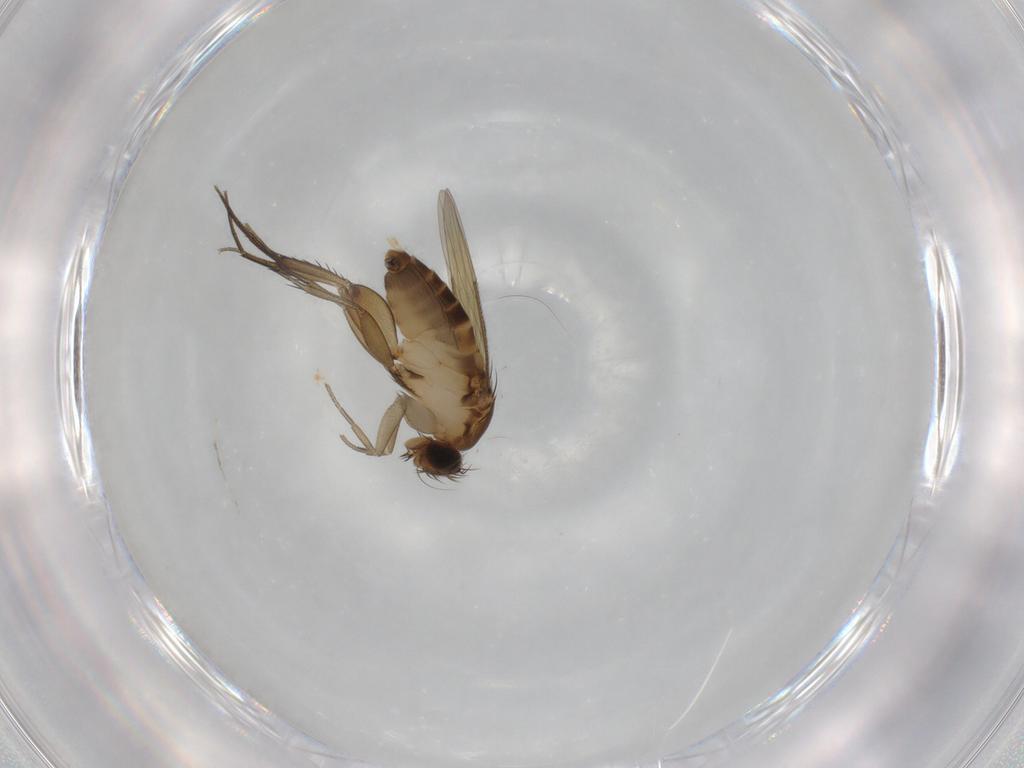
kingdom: Animalia
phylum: Arthropoda
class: Insecta
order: Diptera
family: Phoridae
